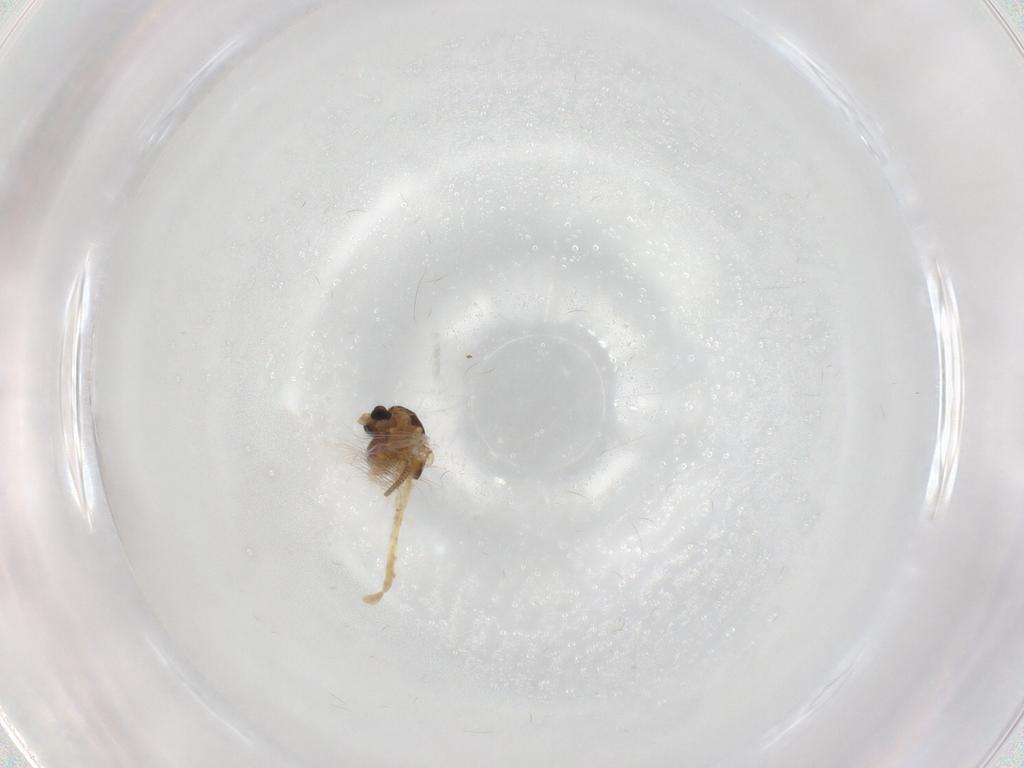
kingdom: Animalia
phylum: Arthropoda
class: Insecta
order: Diptera
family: Chironomidae
